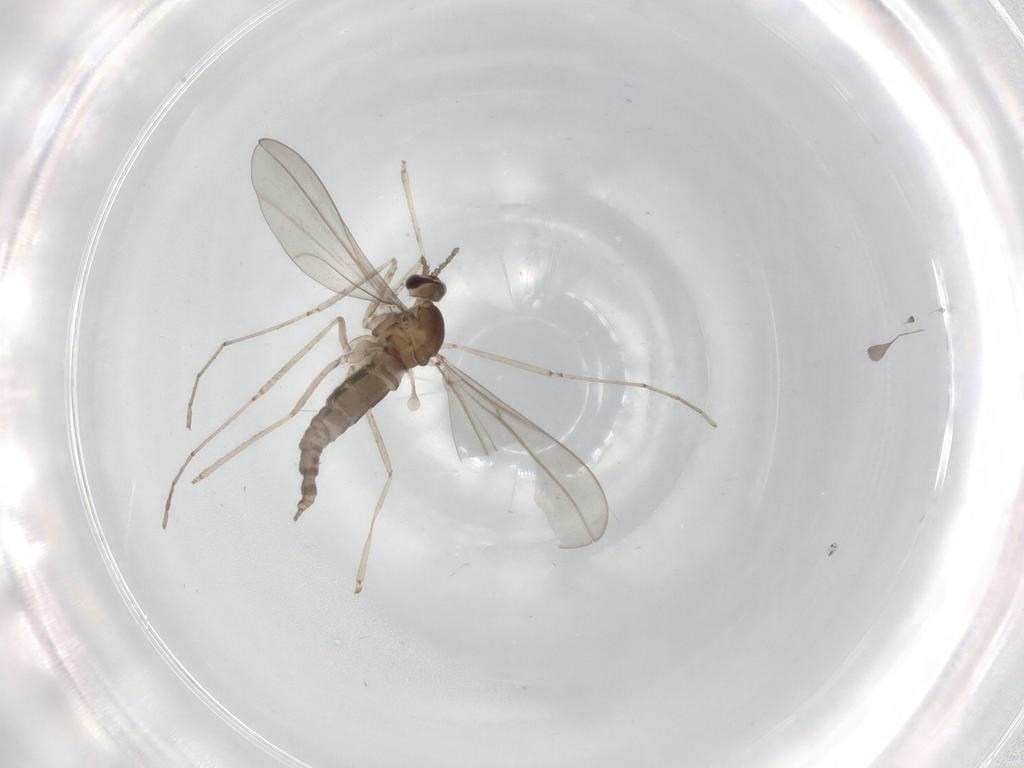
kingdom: Animalia
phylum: Arthropoda
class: Insecta
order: Diptera
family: Cecidomyiidae
